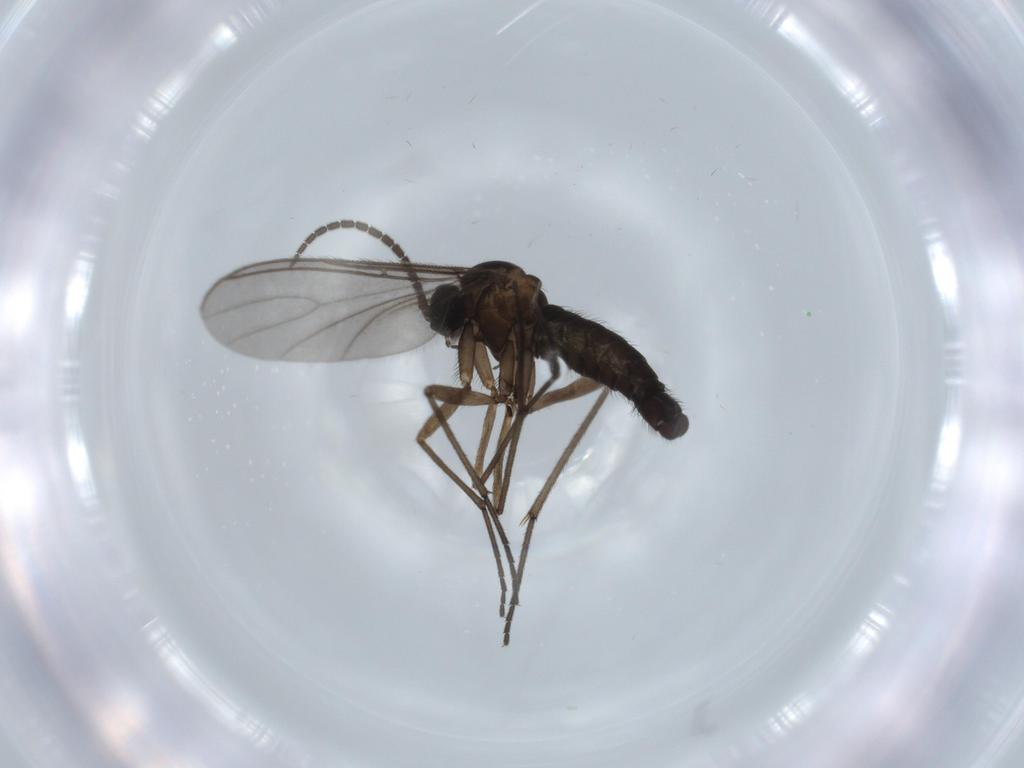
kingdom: Animalia
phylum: Arthropoda
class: Insecta
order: Diptera
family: Sciaridae
